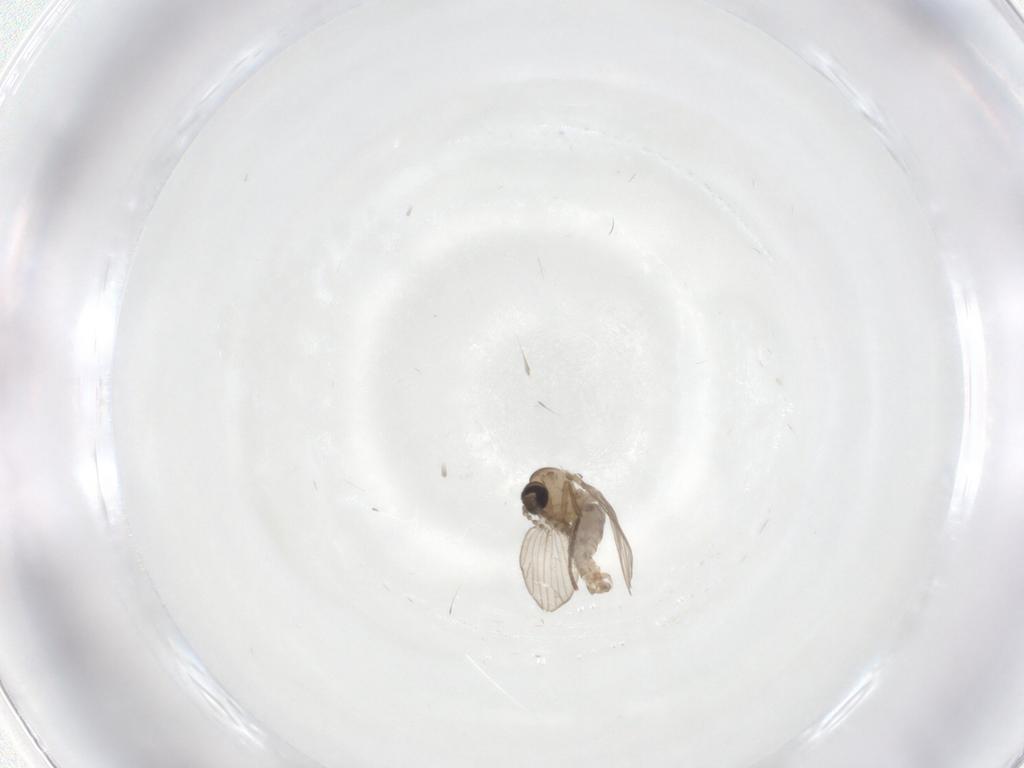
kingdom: Animalia
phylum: Arthropoda
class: Insecta
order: Diptera
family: Psychodidae
